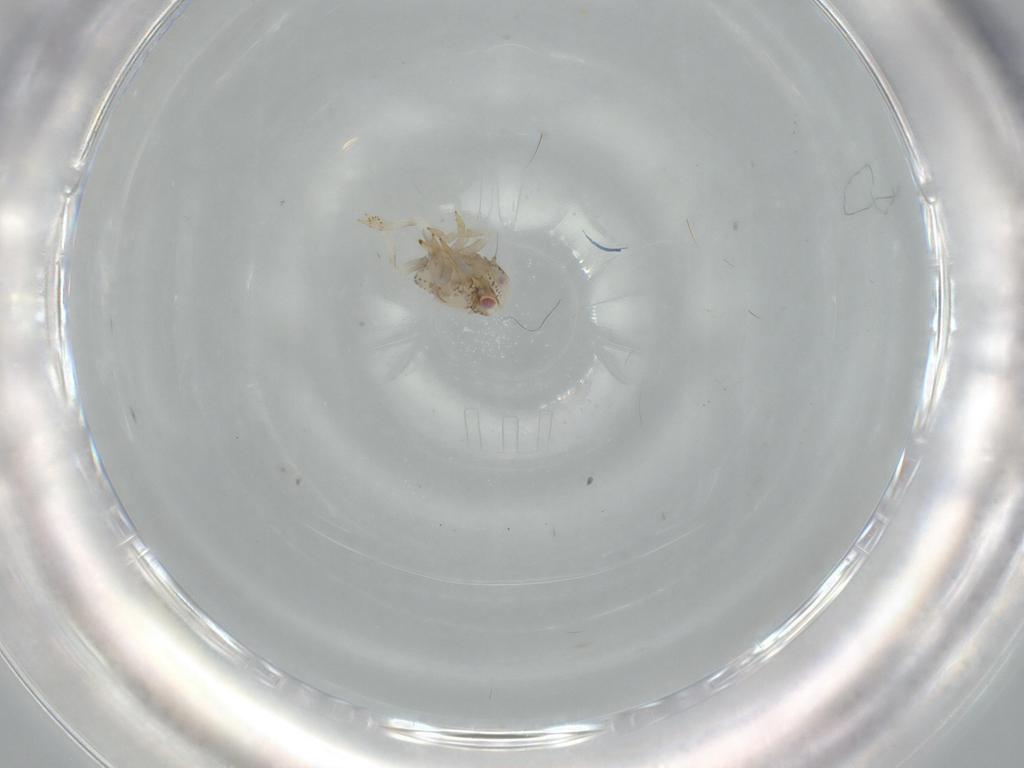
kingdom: Animalia
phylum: Arthropoda
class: Insecta
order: Hemiptera
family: Acanaloniidae
